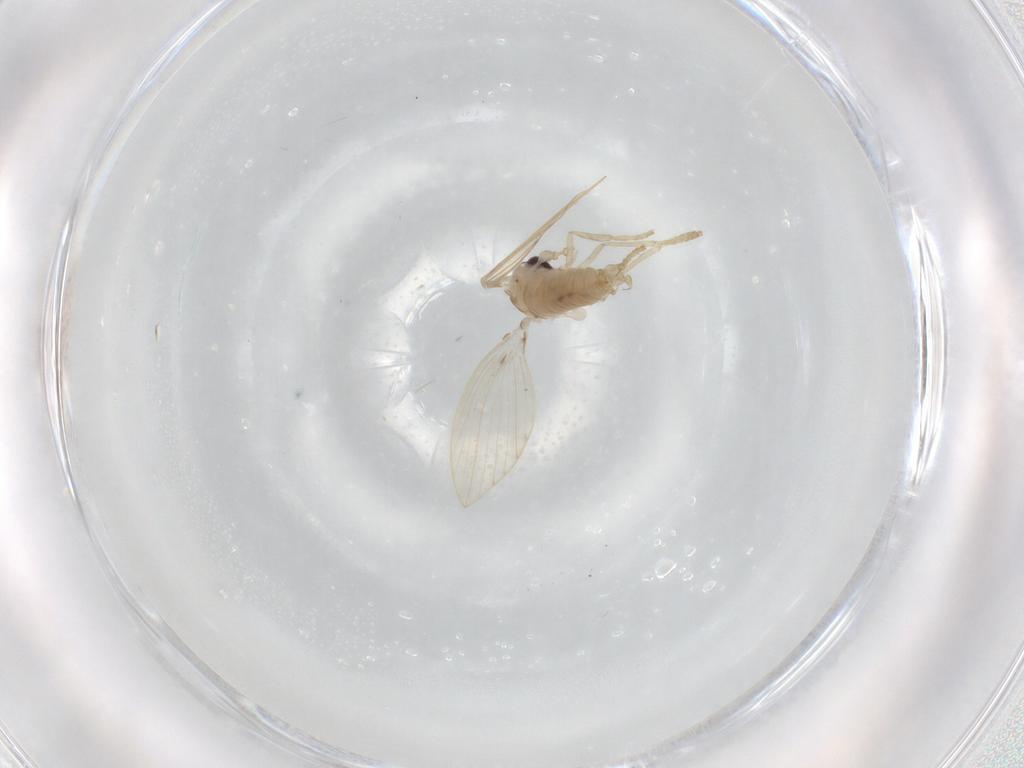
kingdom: Animalia
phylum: Arthropoda
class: Insecta
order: Diptera
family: Psychodidae
